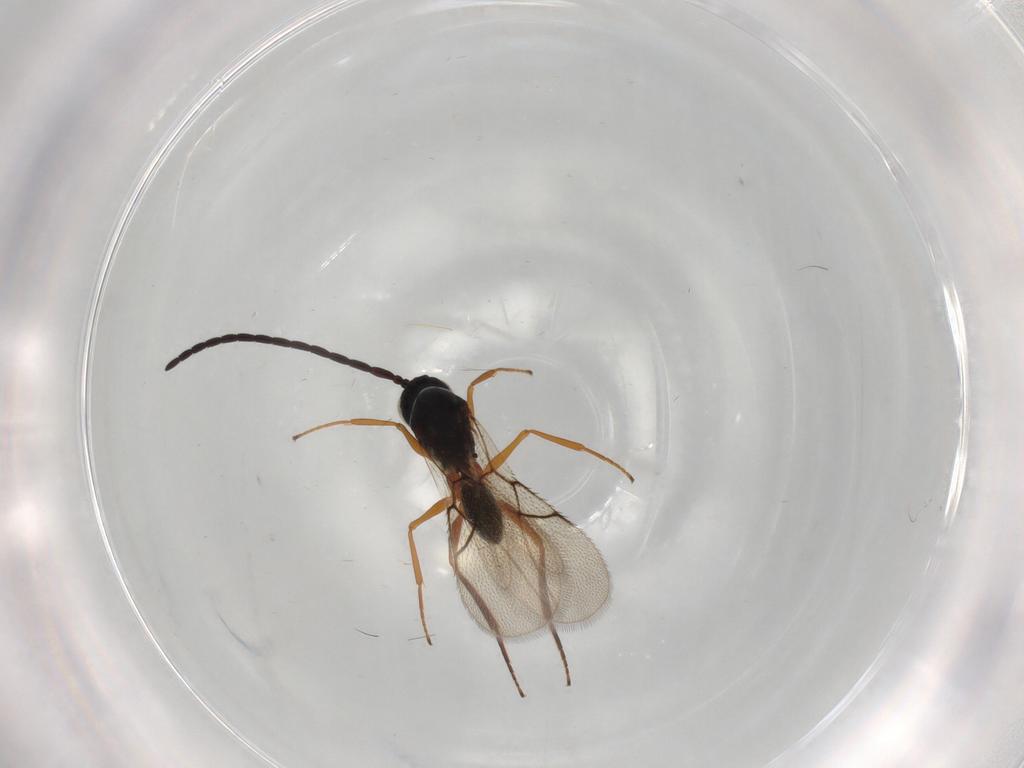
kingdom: Animalia
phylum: Arthropoda
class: Insecta
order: Hymenoptera
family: Figitidae
